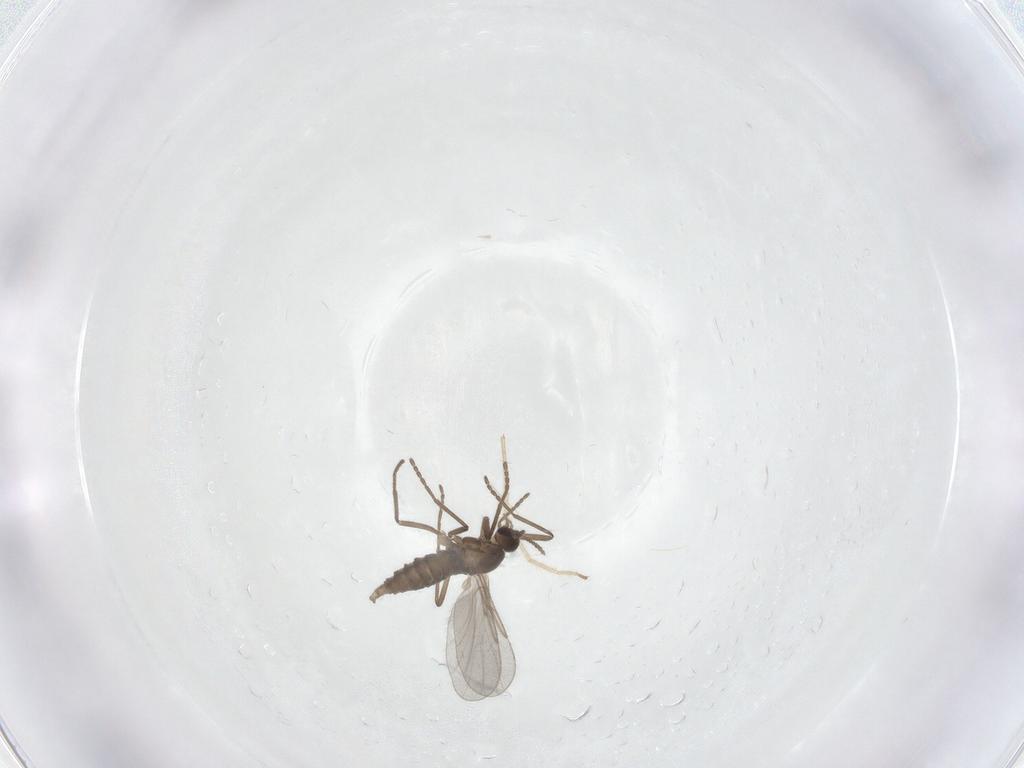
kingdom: Animalia
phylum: Arthropoda
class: Insecta
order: Diptera
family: Cecidomyiidae
